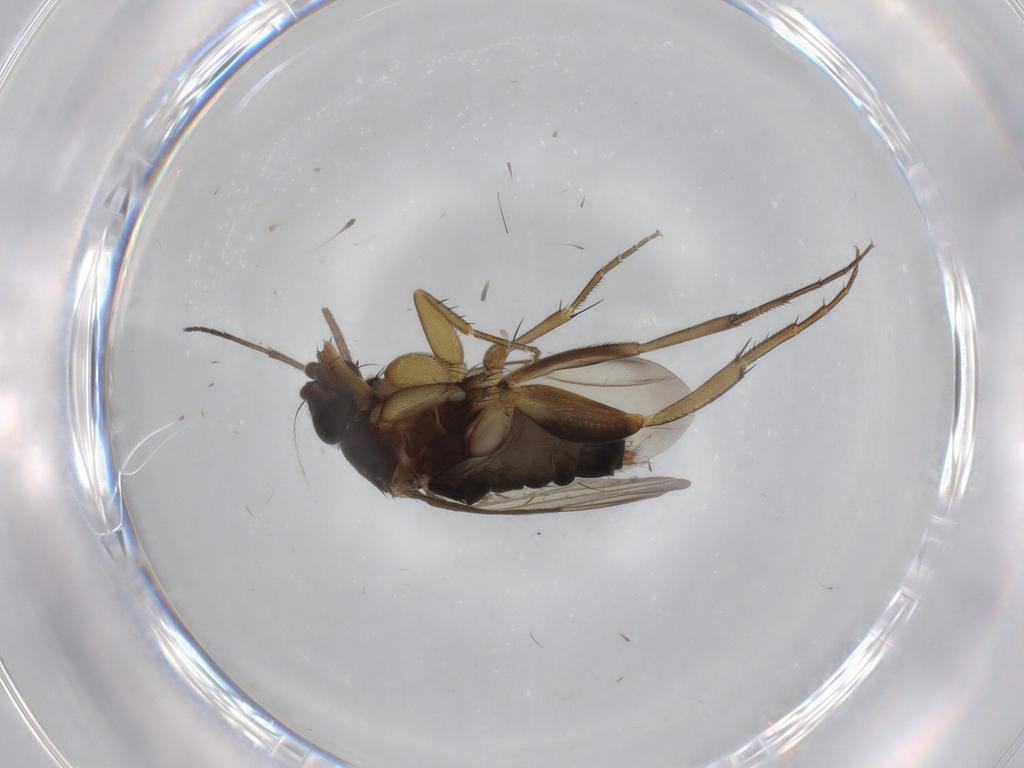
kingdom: Animalia
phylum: Arthropoda
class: Insecta
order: Diptera
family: Dolichopodidae
